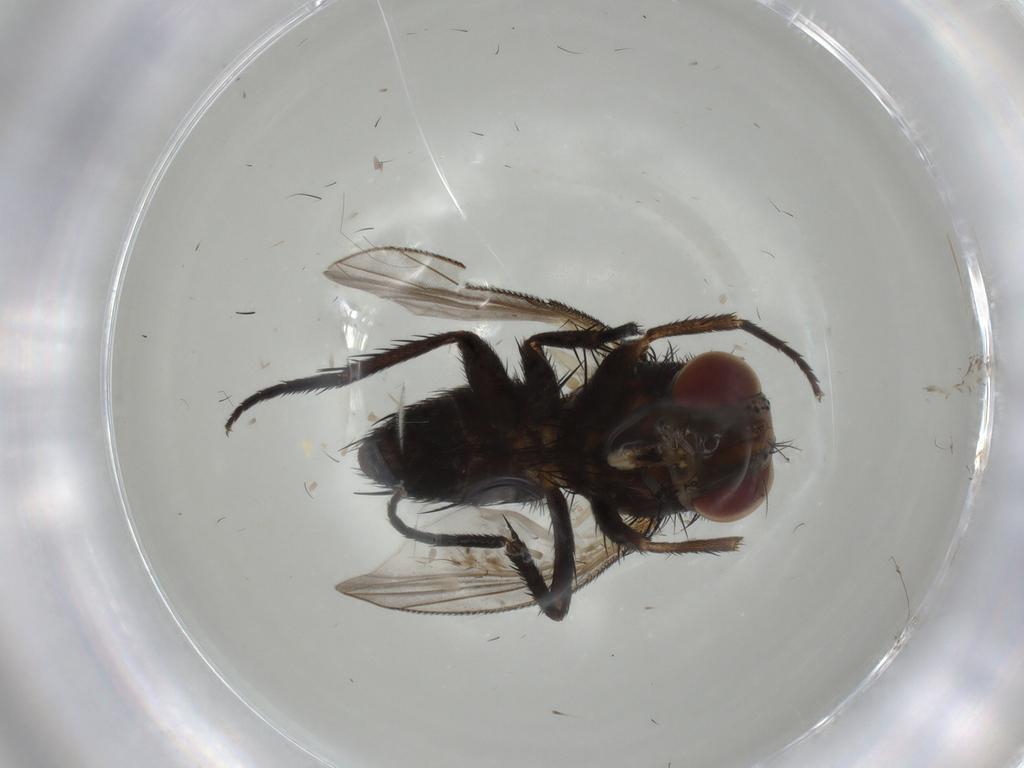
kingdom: Animalia
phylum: Arthropoda
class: Insecta
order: Diptera
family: Tachinidae
